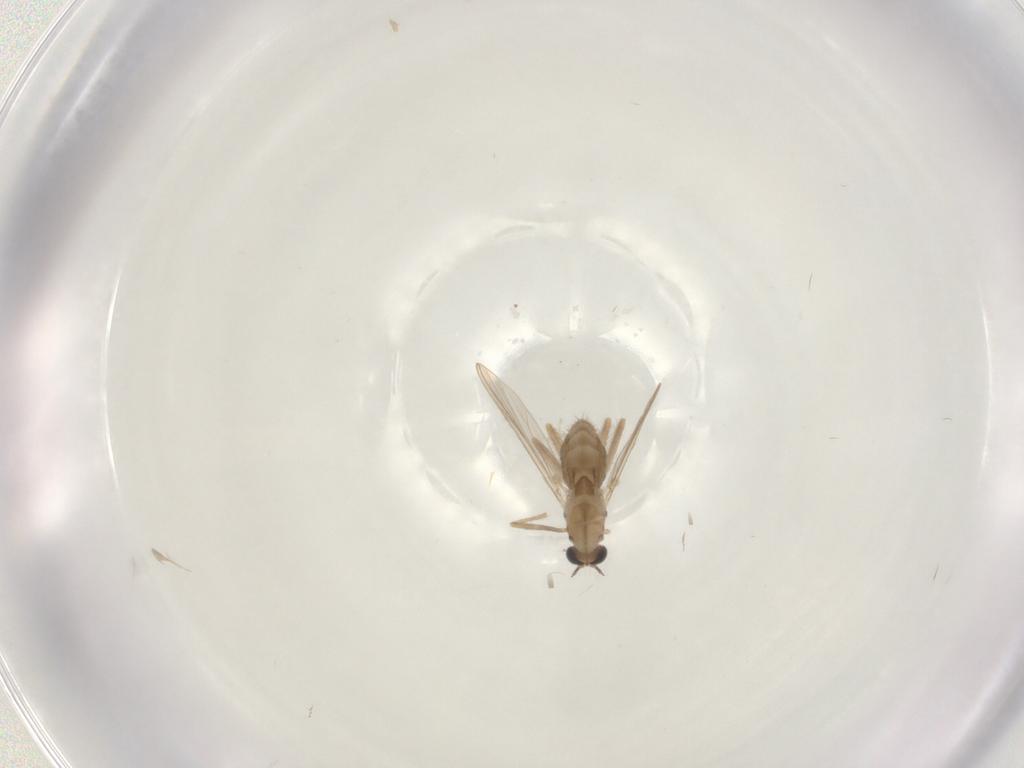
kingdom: Animalia
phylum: Arthropoda
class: Insecta
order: Diptera
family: Chironomidae
